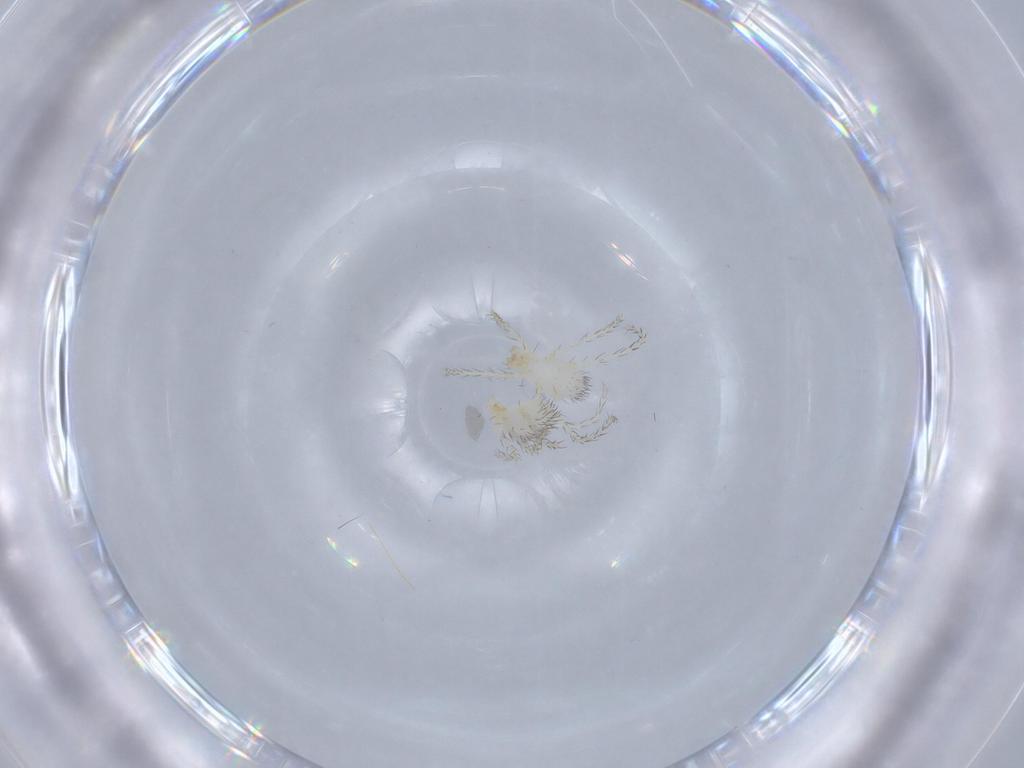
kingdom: Animalia
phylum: Arthropoda
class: Arachnida
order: Trombidiformes
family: Erythraeidae
